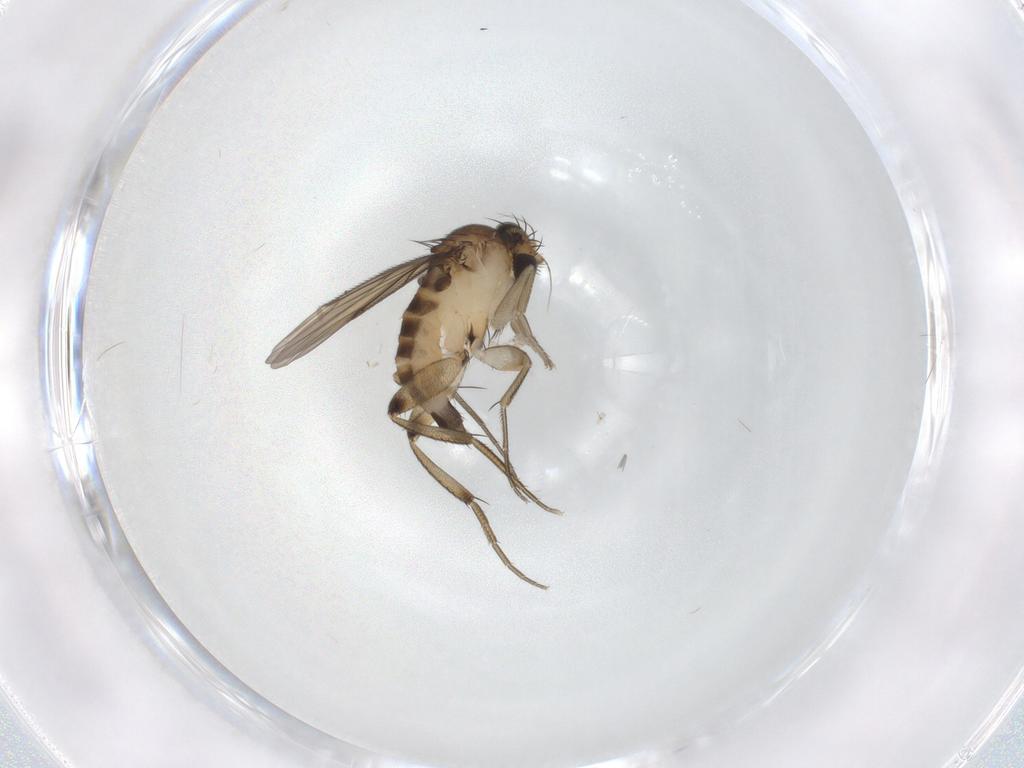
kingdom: Animalia
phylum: Arthropoda
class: Insecta
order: Diptera
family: Phoridae
